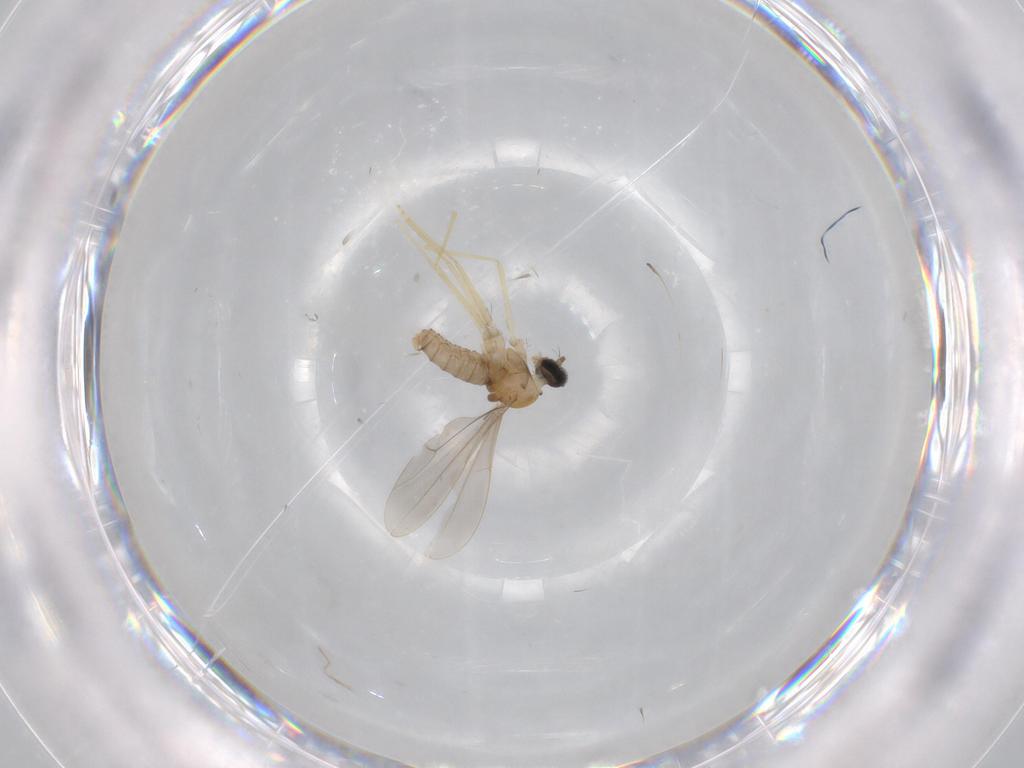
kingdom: Animalia
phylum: Arthropoda
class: Insecta
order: Diptera
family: Cecidomyiidae
